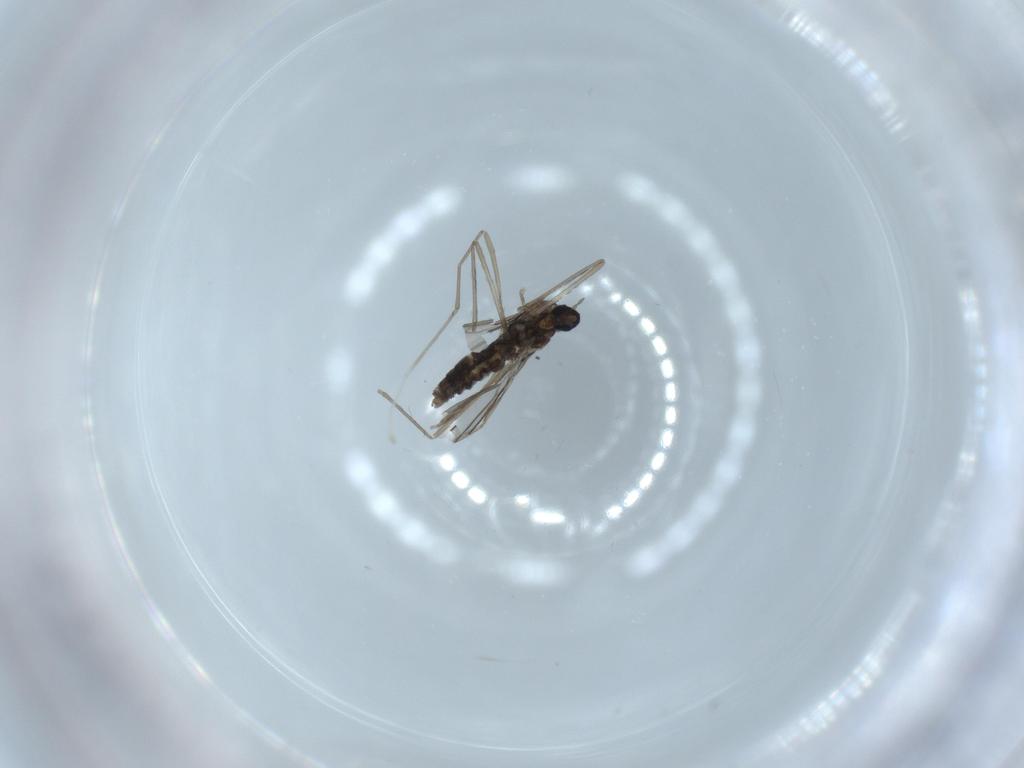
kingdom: Animalia
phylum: Arthropoda
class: Insecta
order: Diptera
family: Cecidomyiidae
